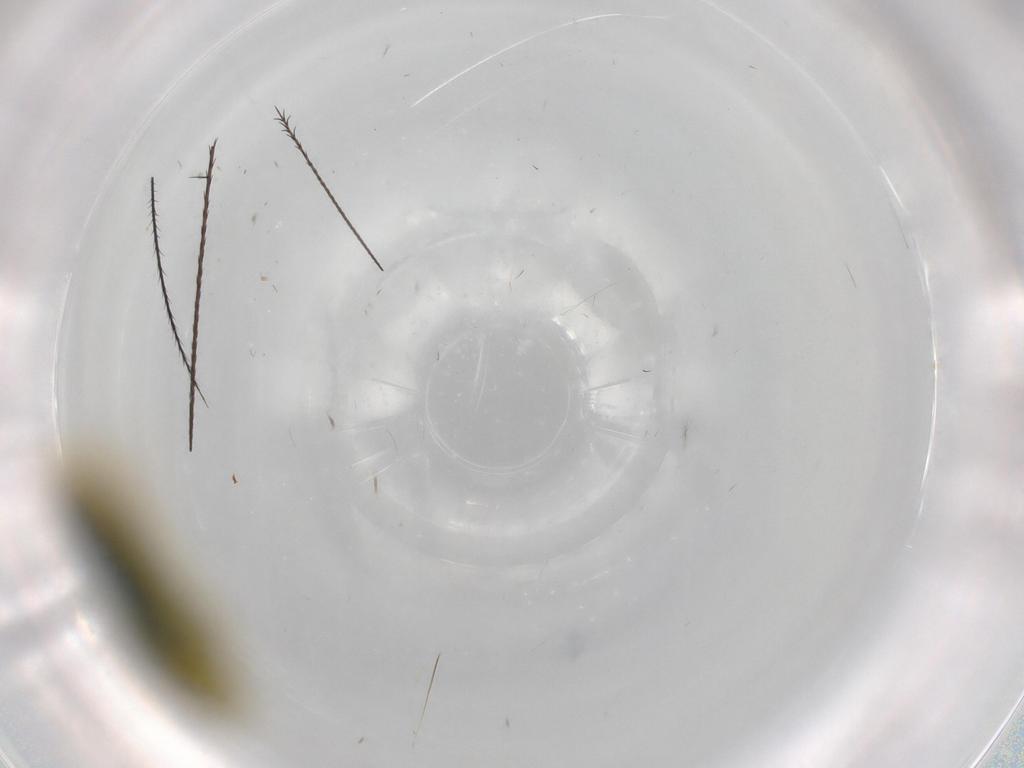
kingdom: Animalia
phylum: Arthropoda
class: Insecta
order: Hemiptera
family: Cicadellidae
